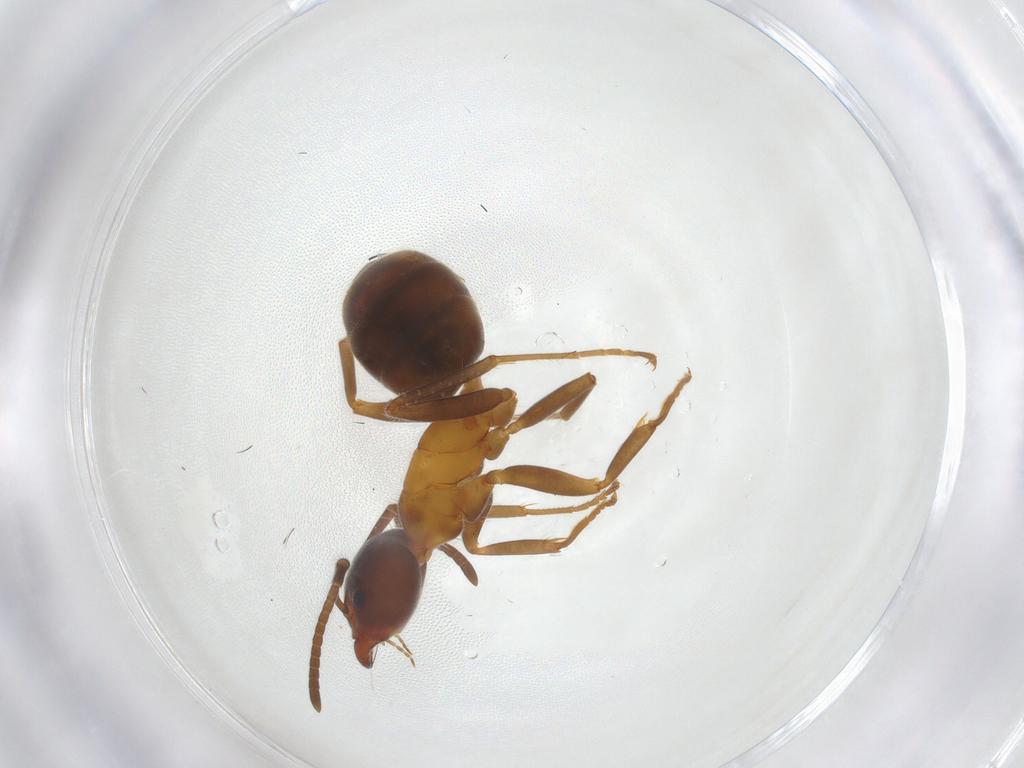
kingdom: Animalia
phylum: Arthropoda
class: Insecta
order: Hymenoptera
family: Formicidae
